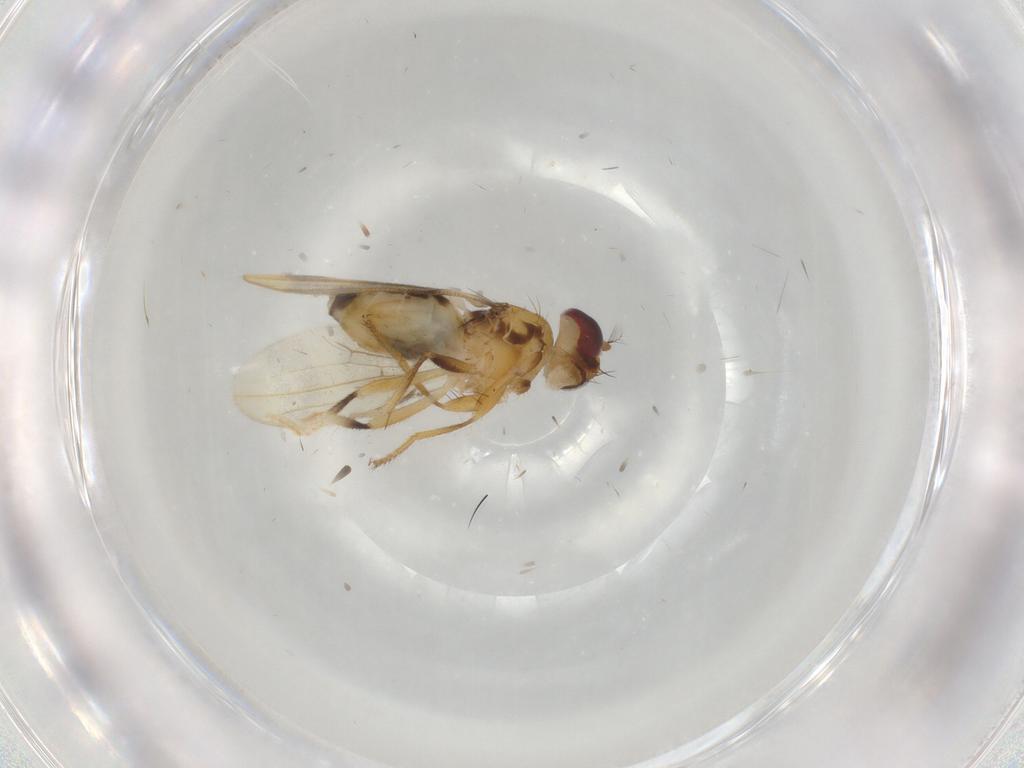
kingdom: Animalia
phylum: Arthropoda
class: Insecta
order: Diptera
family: Periscelididae
